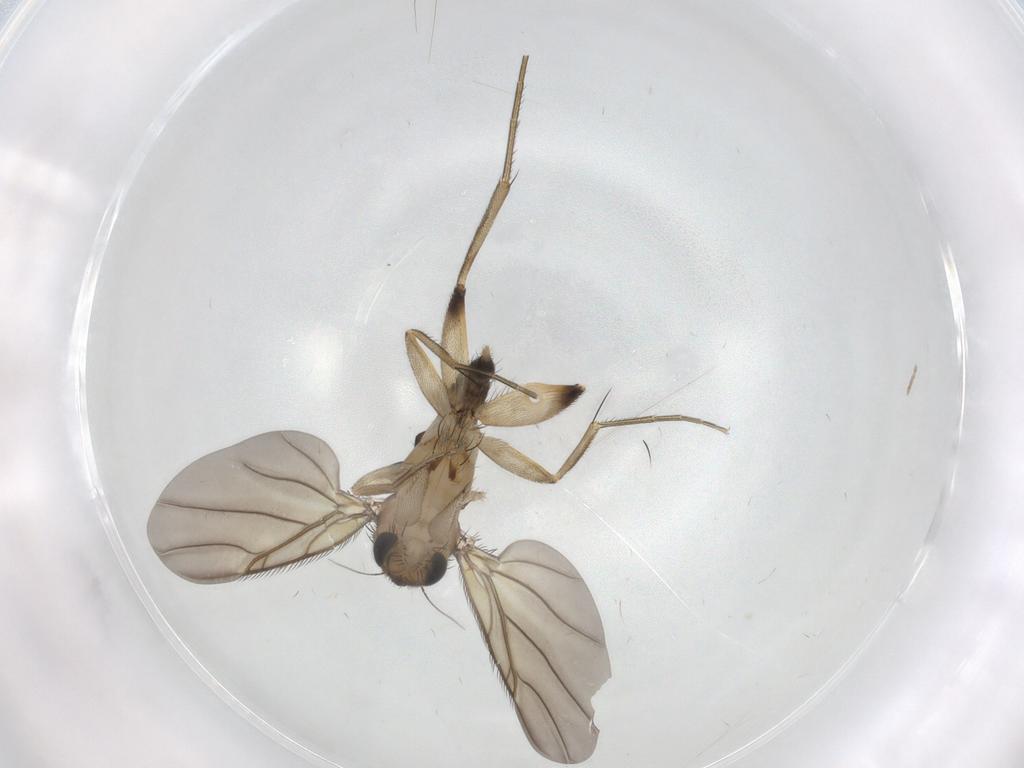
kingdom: Animalia
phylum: Arthropoda
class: Insecta
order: Diptera
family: Phoridae
